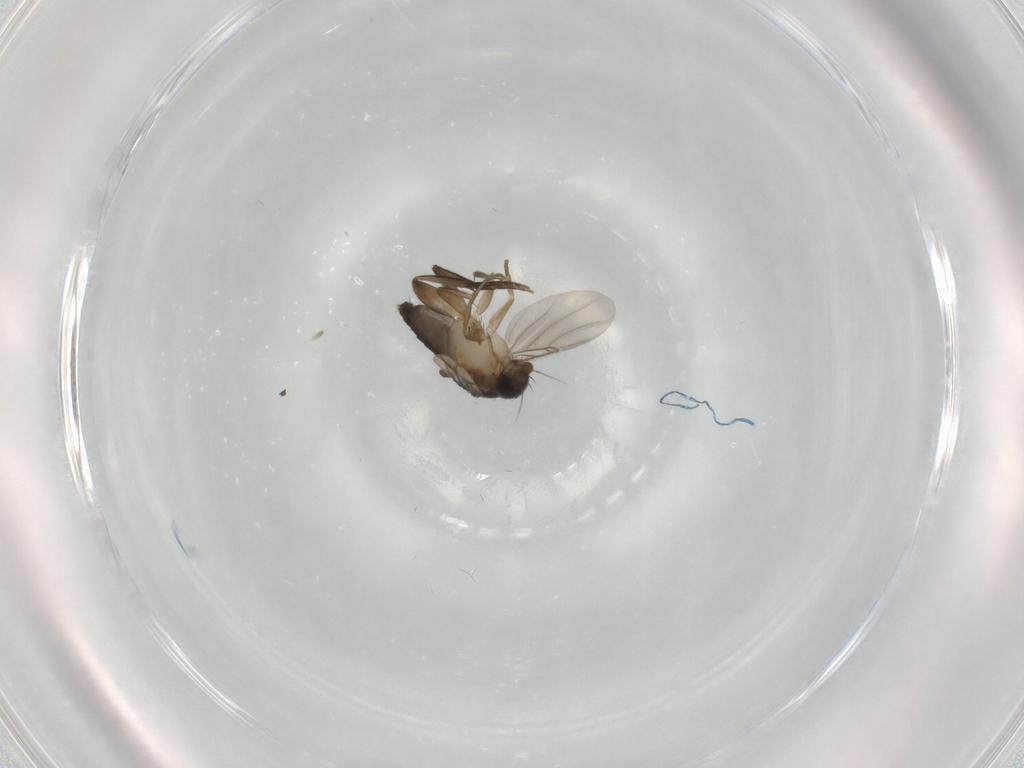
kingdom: Animalia
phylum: Arthropoda
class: Insecta
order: Diptera
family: Phoridae
